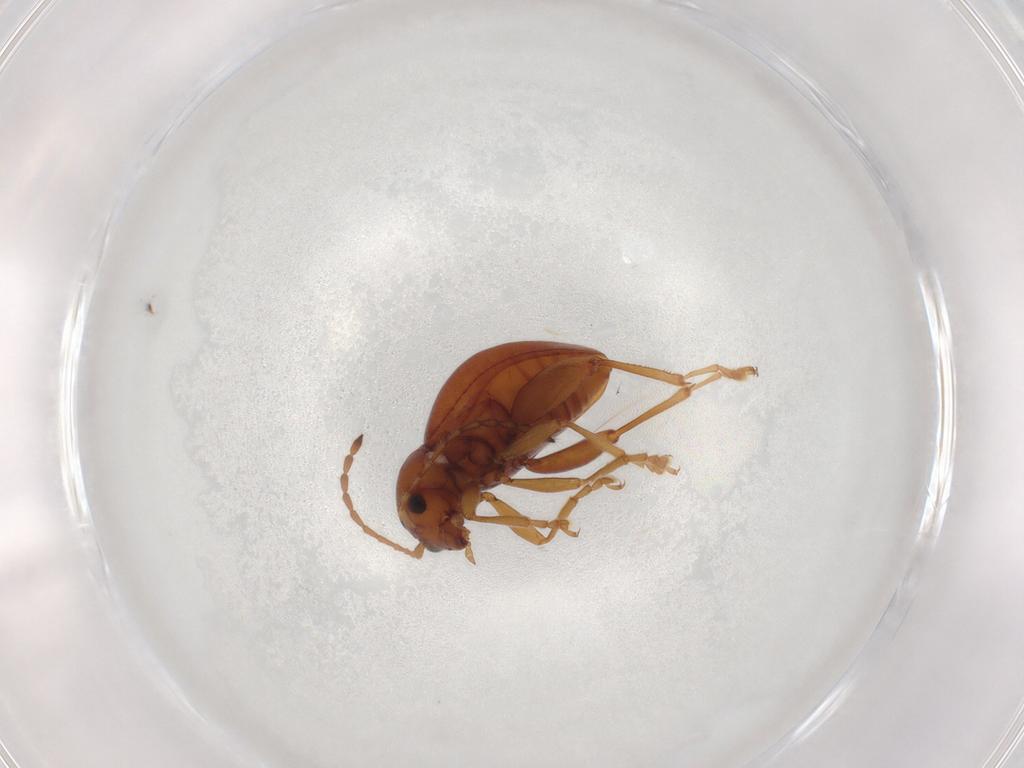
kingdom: Animalia
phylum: Arthropoda
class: Insecta
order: Coleoptera
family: Chrysomelidae
